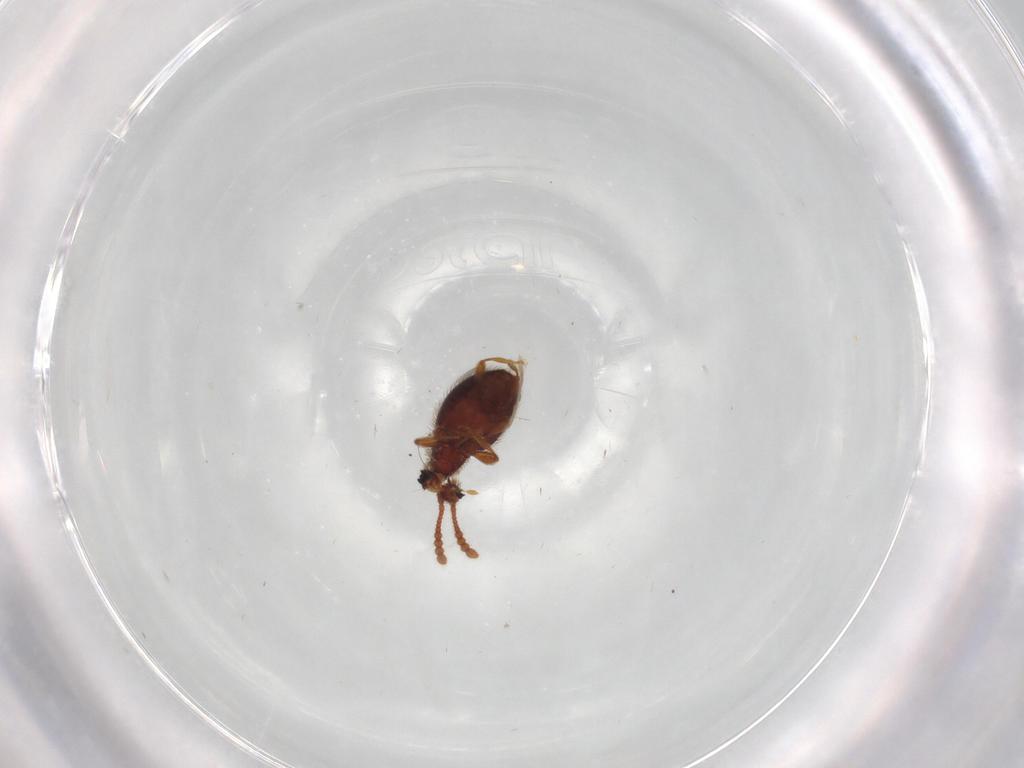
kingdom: Animalia
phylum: Arthropoda
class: Insecta
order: Coleoptera
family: Staphylinidae
